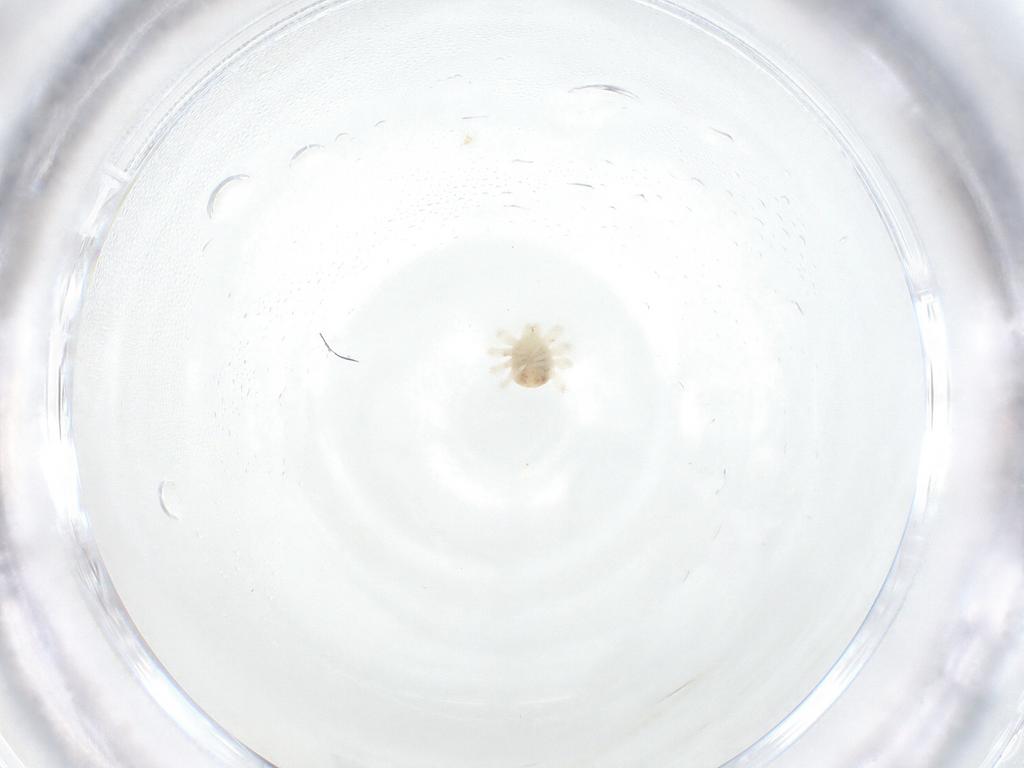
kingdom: Animalia
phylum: Arthropoda
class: Arachnida
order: Trombidiformes
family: Anystidae
